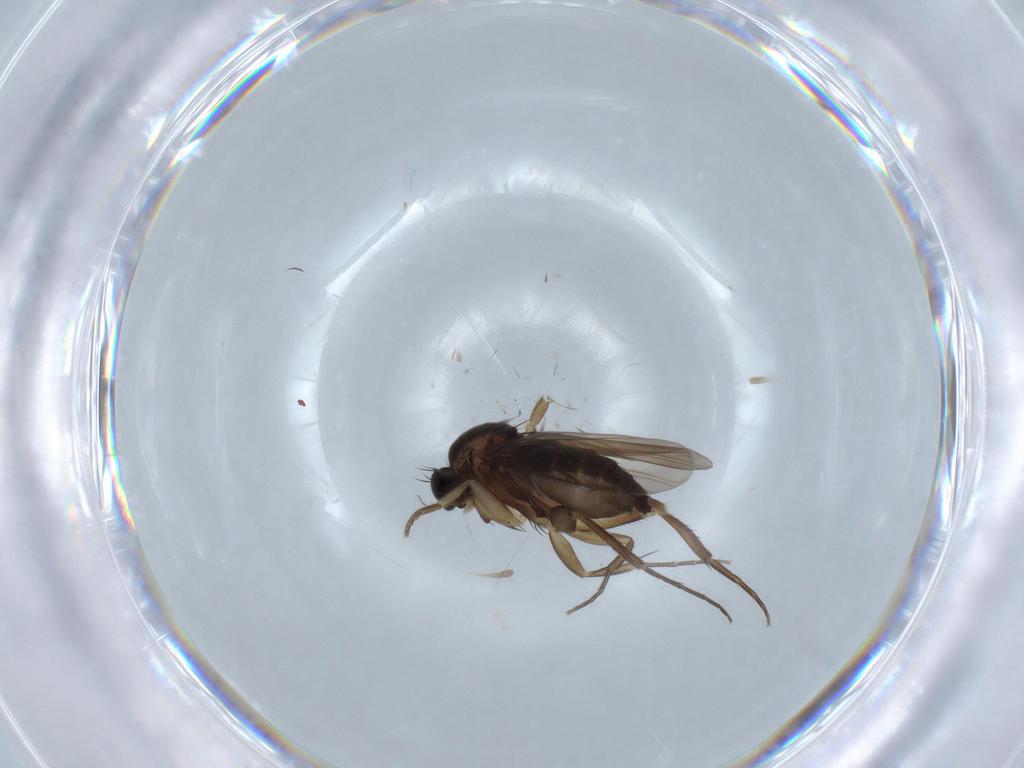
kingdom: Animalia
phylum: Arthropoda
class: Insecta
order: Diptera
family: Phoridae
